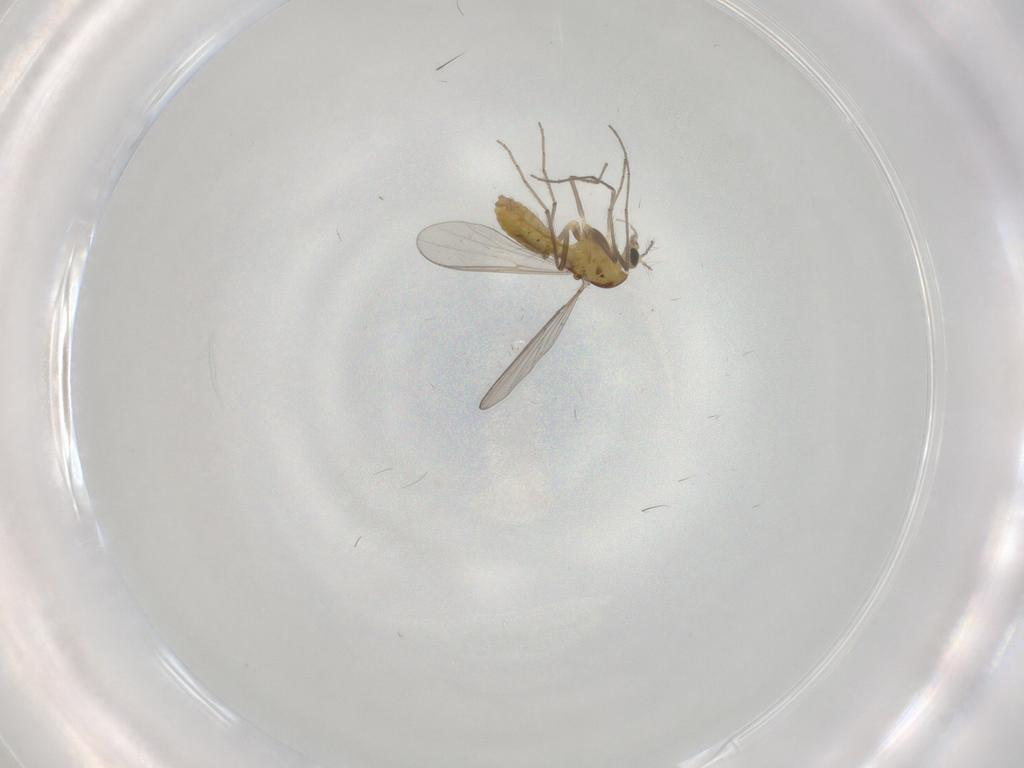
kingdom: Animalia
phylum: Arthropoda
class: Insecta
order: Diptera
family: Chironomidae
